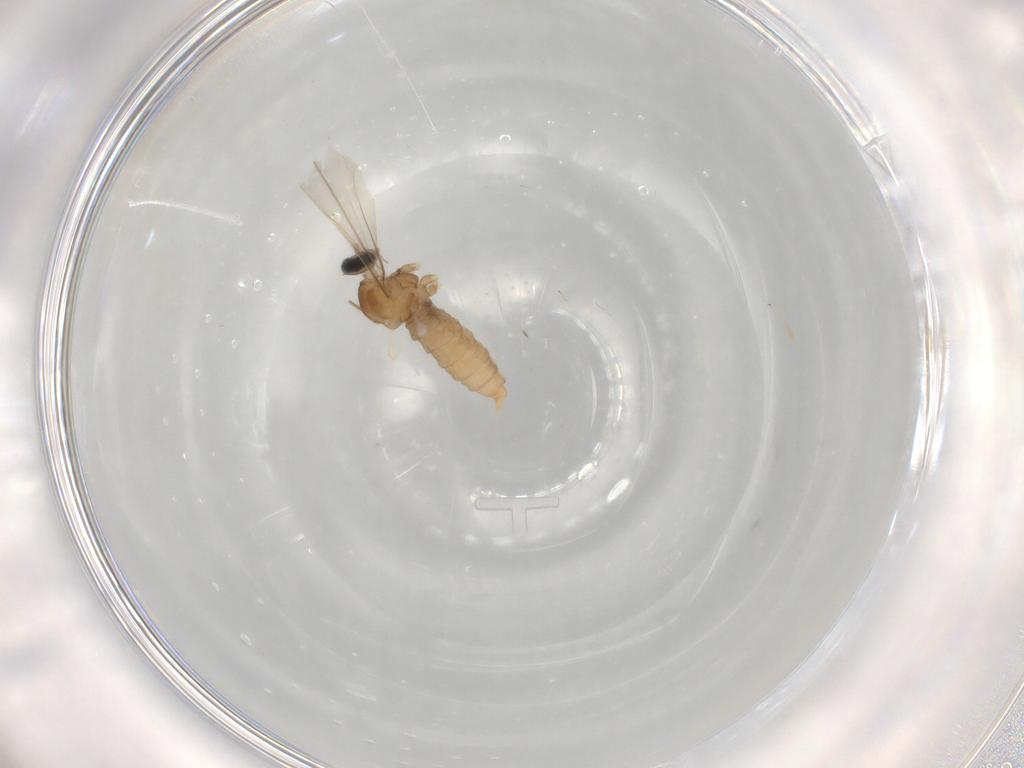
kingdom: Animalia
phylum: Arthropoda
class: Insecta
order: Diptera
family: Cecidomyiidae
